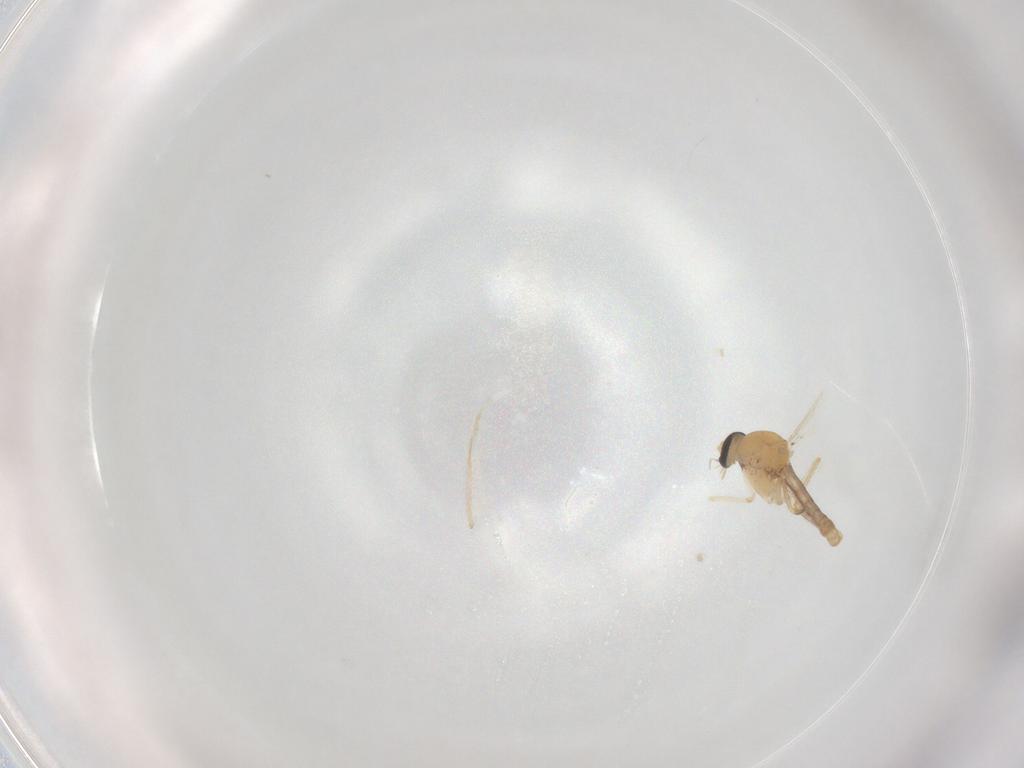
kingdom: Animalia
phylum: Arthropoda
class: Insecta
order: Diptera
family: Ceratopogonidae
